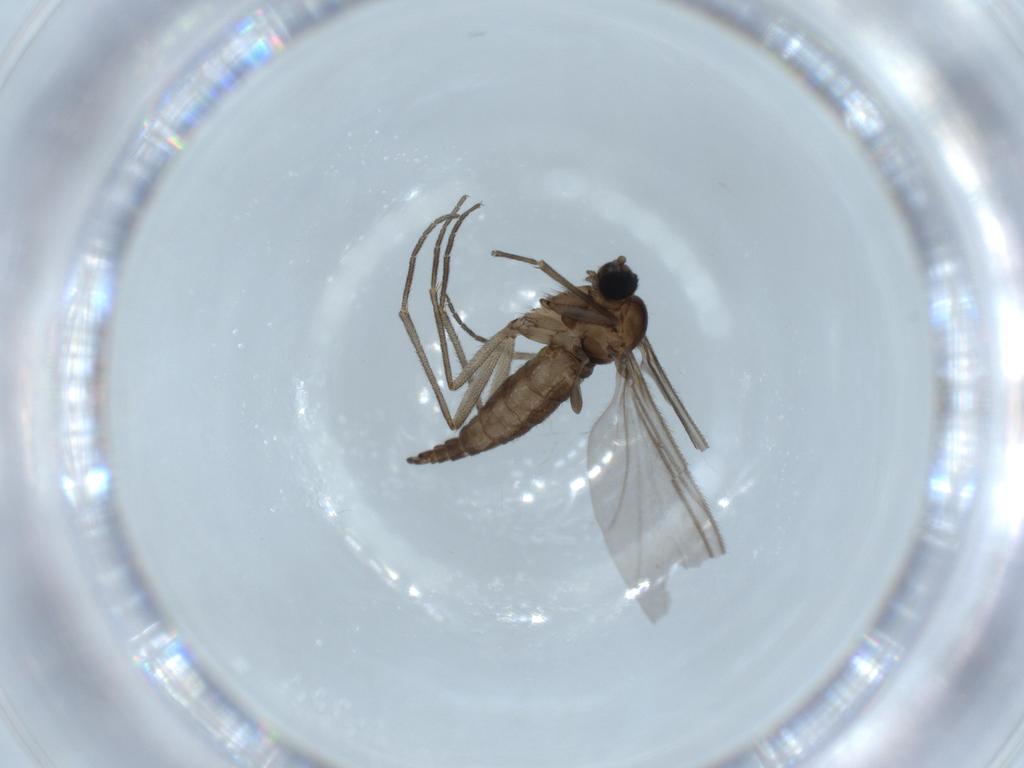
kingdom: Animalia
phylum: Arthropoda
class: Insecta
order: Diptera
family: Sciaridae
